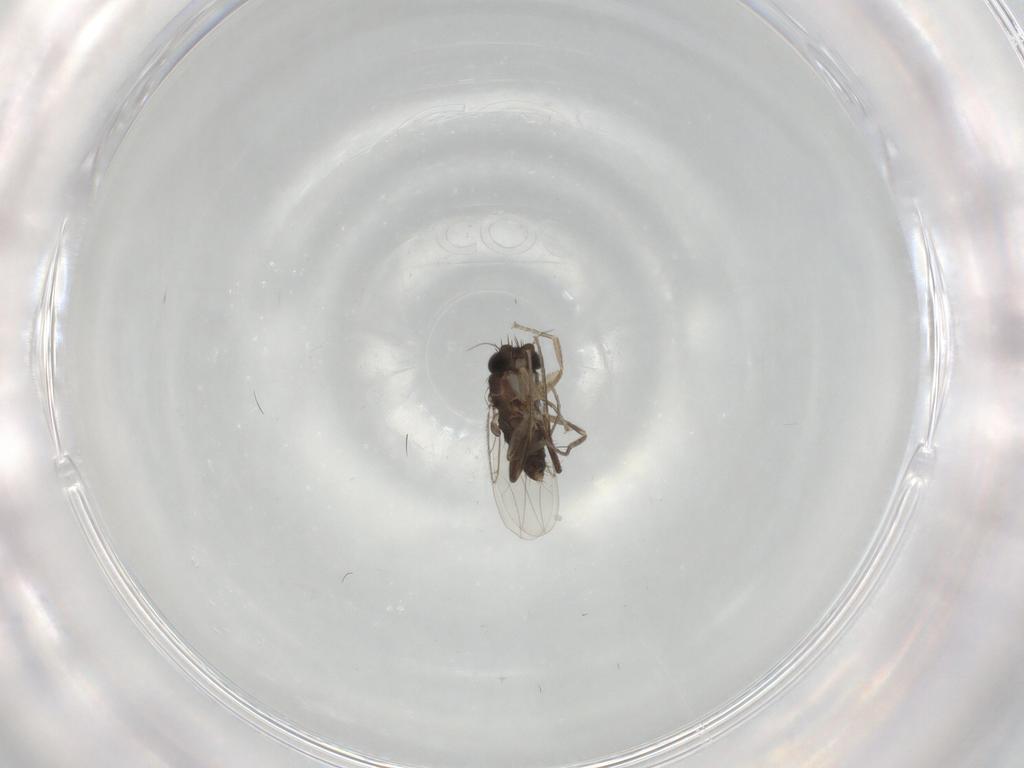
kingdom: Animalia
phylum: Arthropoda
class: Insecta
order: Diptera
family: Phoridae
